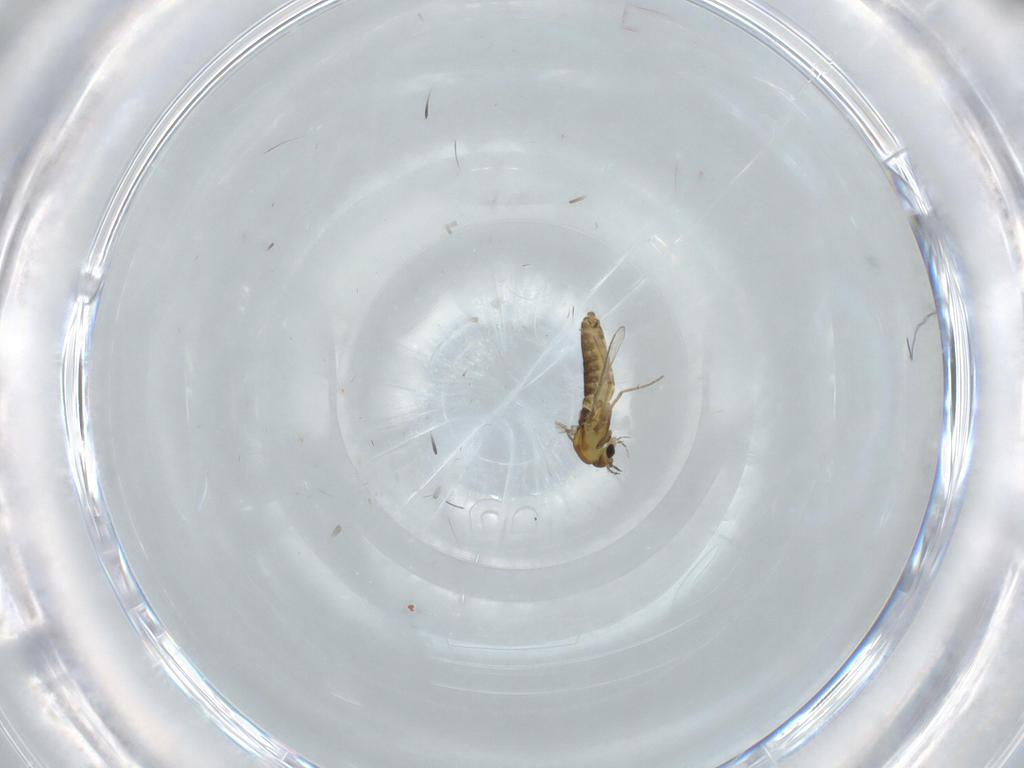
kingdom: Animalia
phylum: Arthropoda
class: Insecta
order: Diptera
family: Chironomidae
